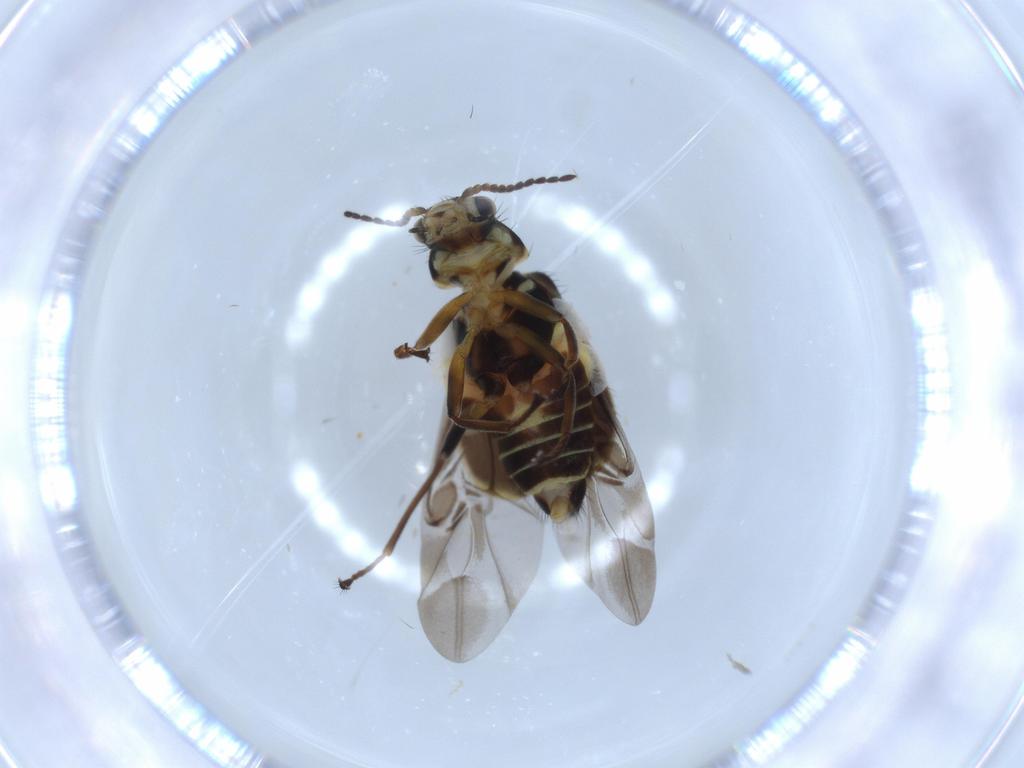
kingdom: Animalia
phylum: Arthropoda
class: Insecta
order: Coleoptera
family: Melyridae
